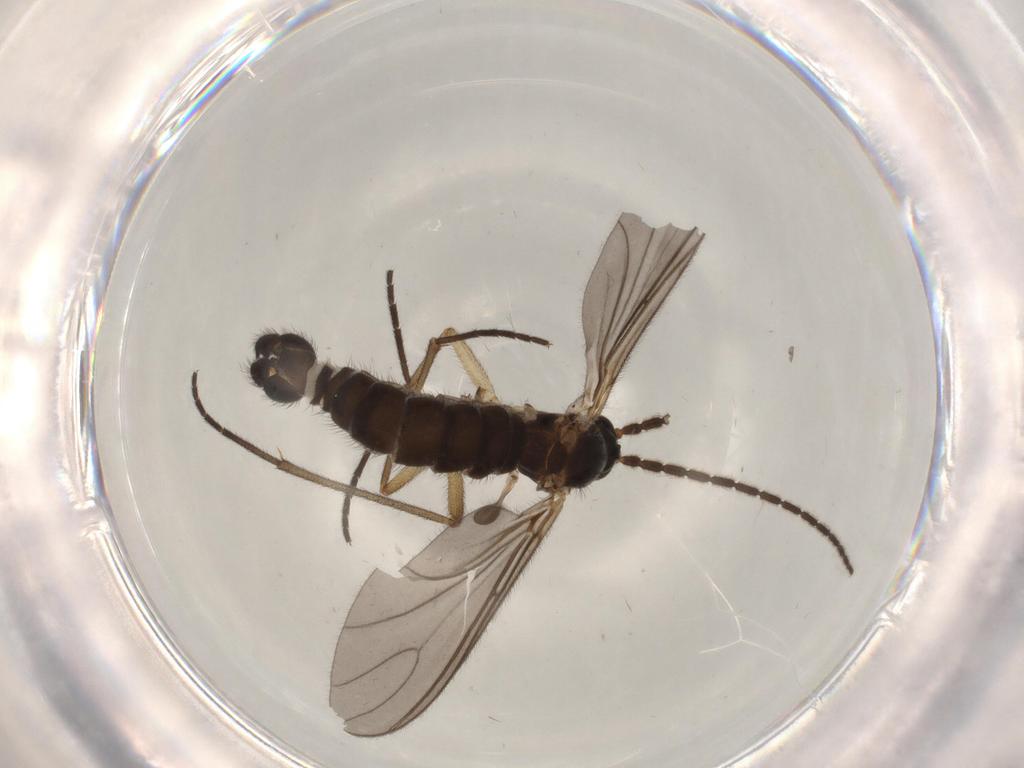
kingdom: Animalia
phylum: Arthropoda
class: Insecta
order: Diptera
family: Sciaridae
